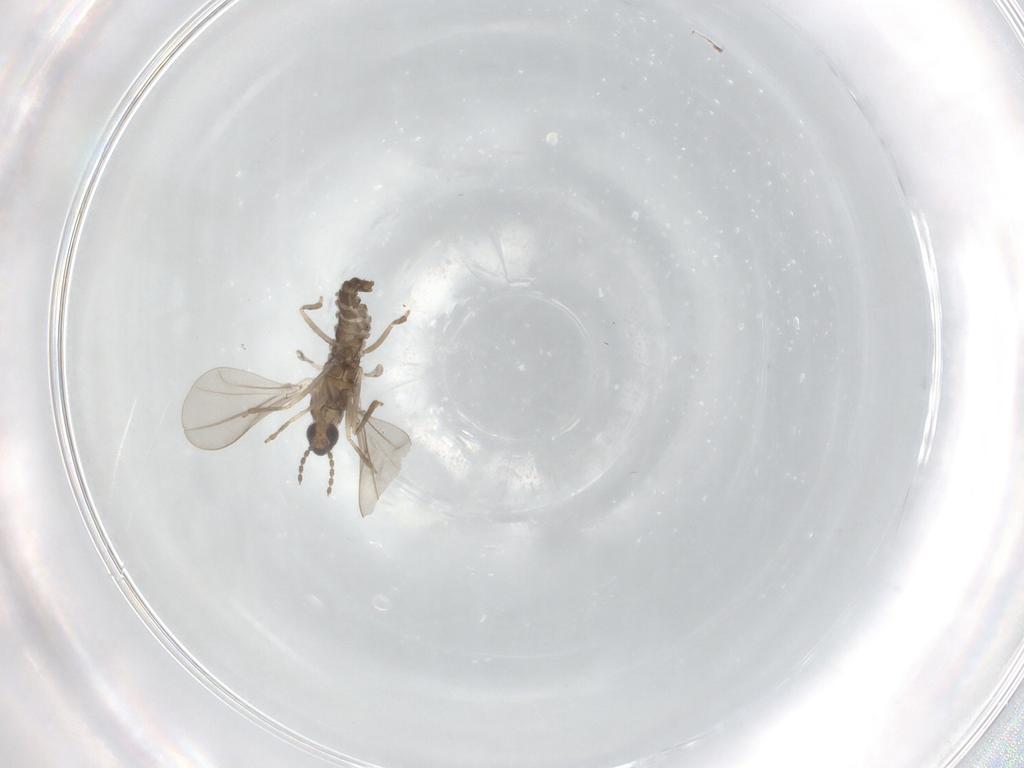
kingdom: Animalia
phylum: Arthropoda
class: Insecta
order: Diptera
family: Cecidomyiidae
